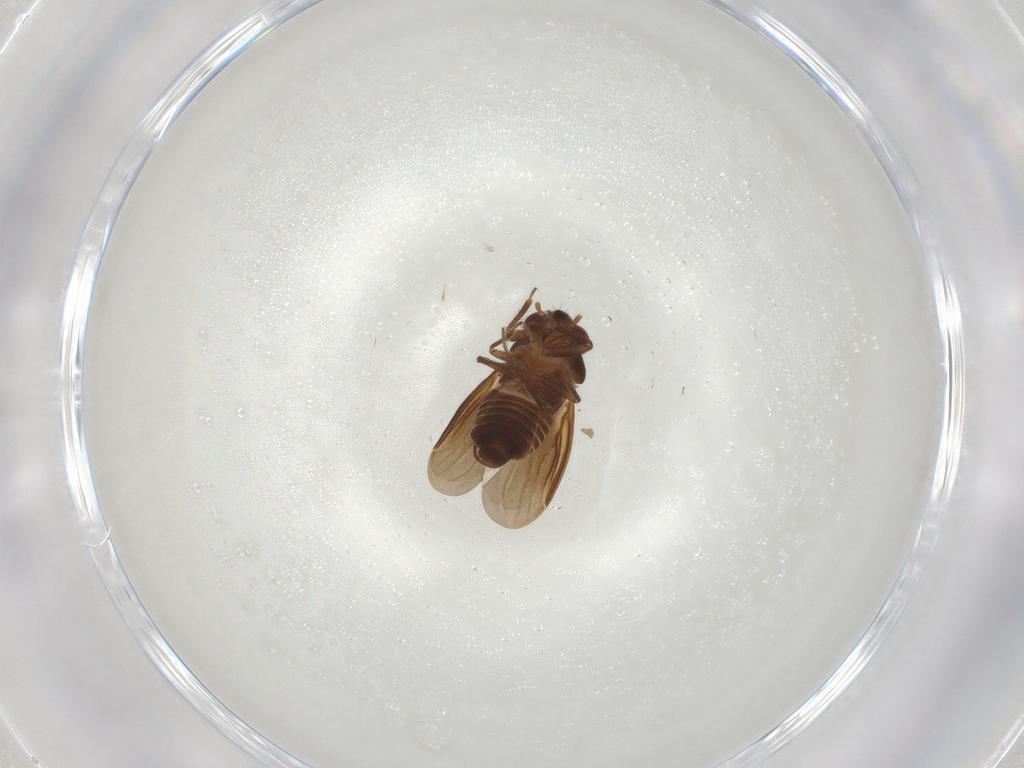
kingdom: Animalia
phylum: Arthropoda
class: Insecta
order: Hemiptera
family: Schizopteridae
